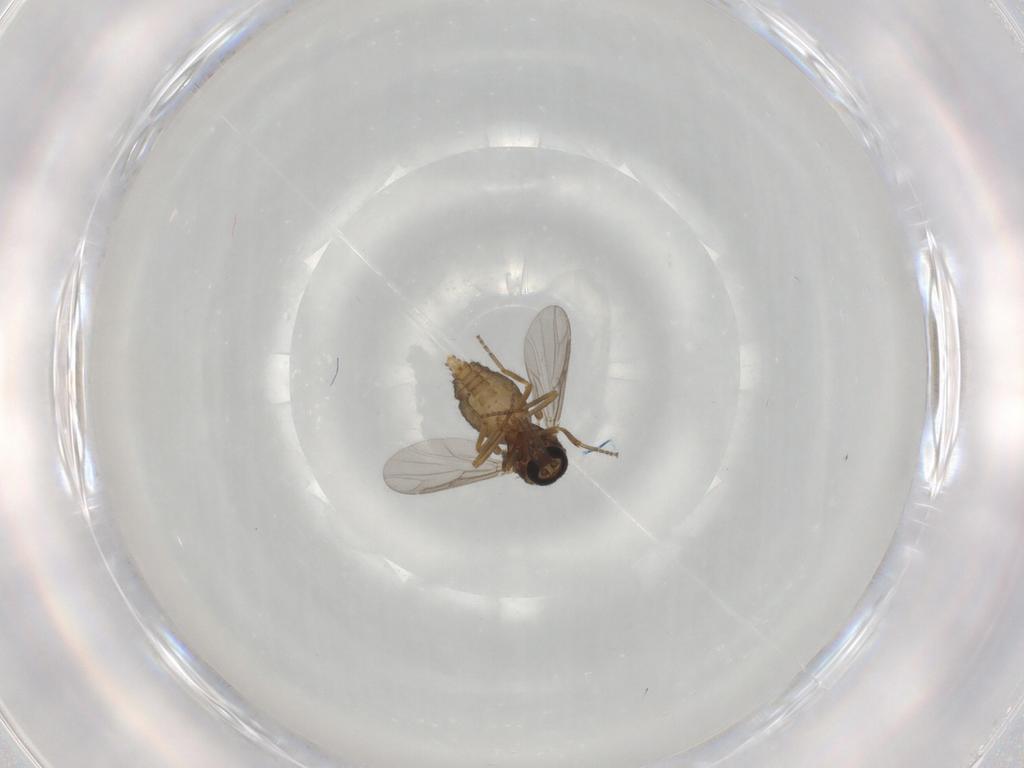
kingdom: Animalia
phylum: Arthropoda
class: Insecta
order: Diptera
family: Ceratopogonidae
